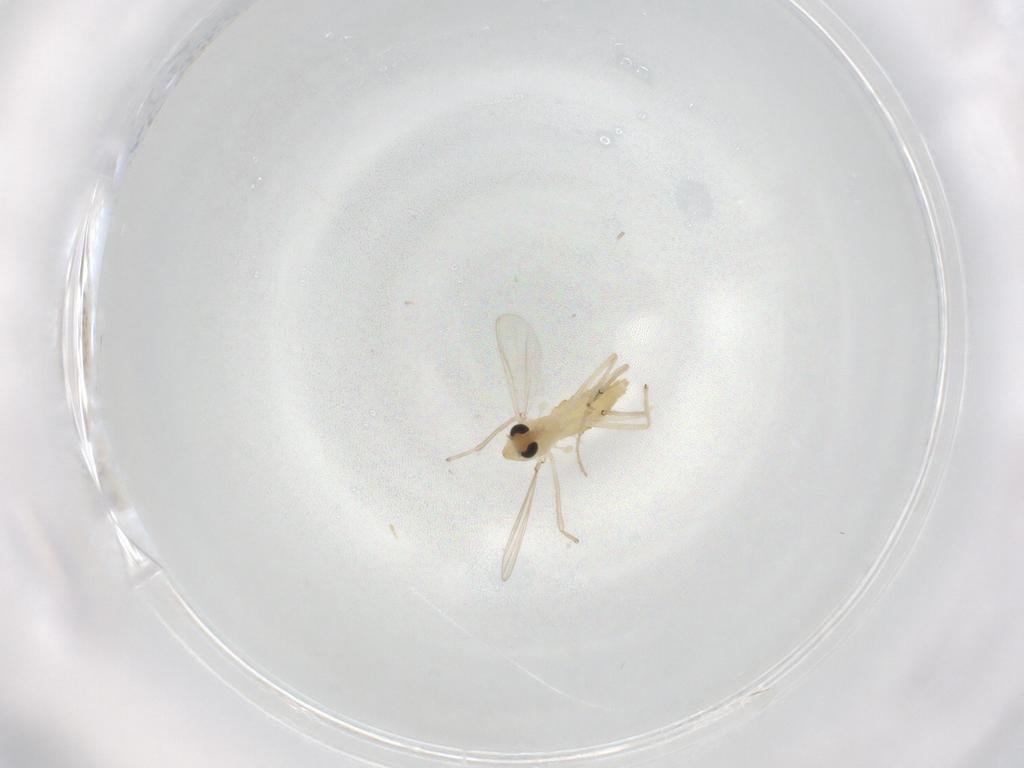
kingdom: Animalia
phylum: Arthropoda
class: Insecta
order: Diptera
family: Chironomidae
